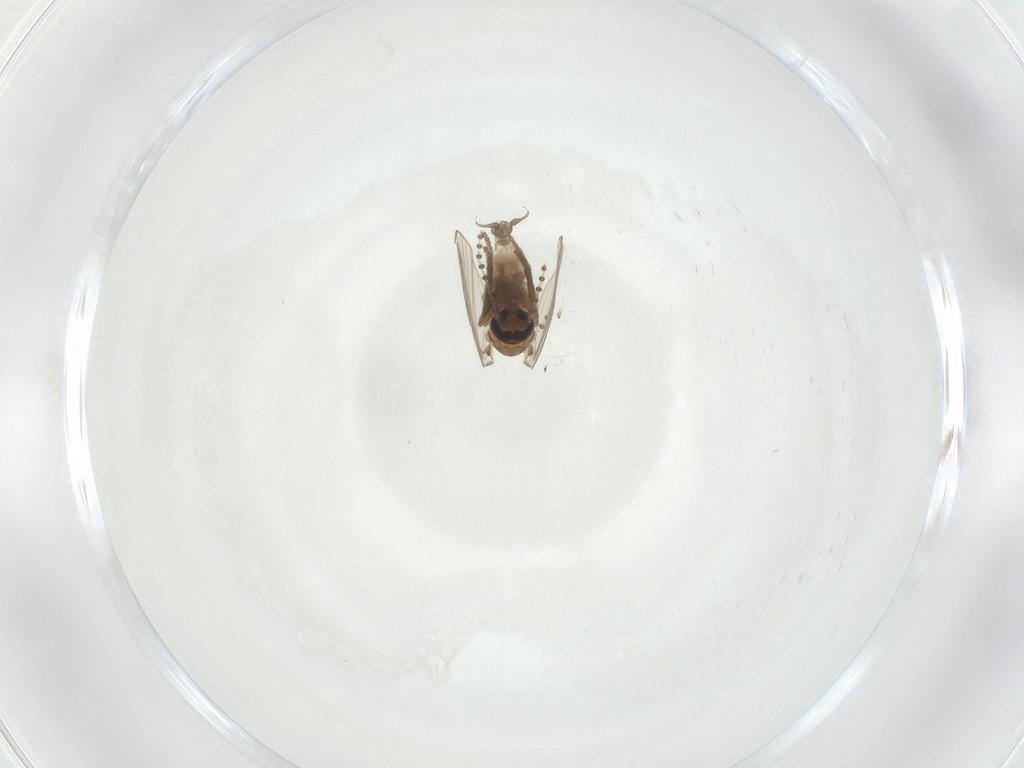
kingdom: Animalia
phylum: Arthropoda
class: Insecta
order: Diptera
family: Psychodidae
